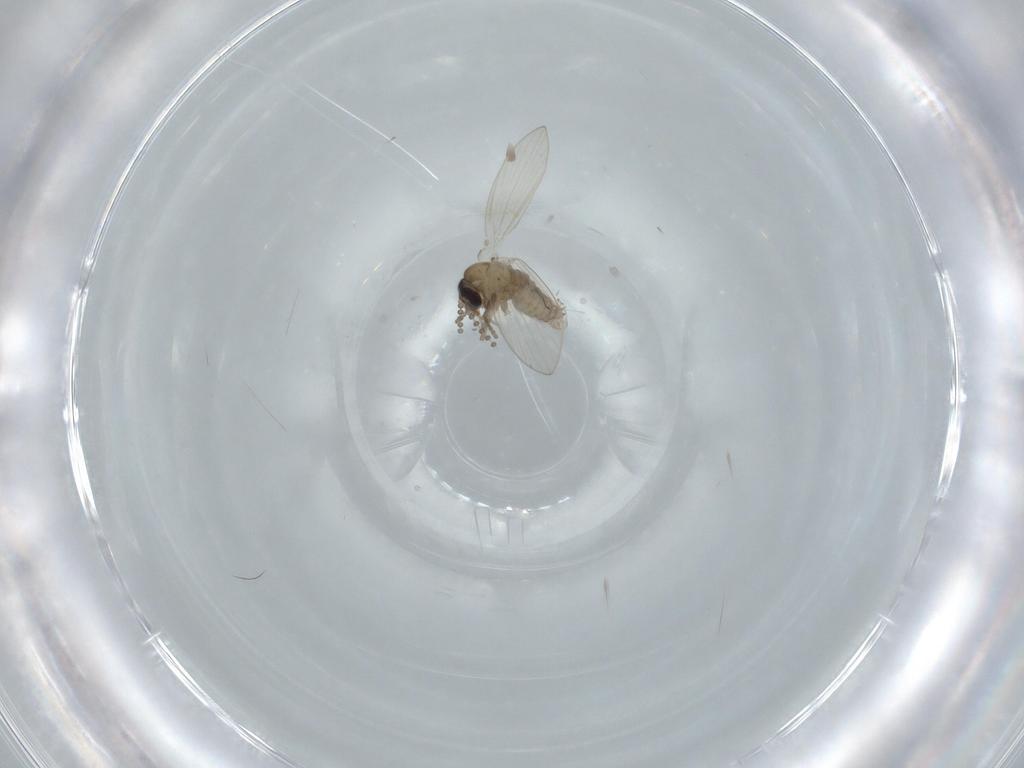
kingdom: Animalia
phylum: Arthropoda
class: Insecta
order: Diptera
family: Psychodidae
